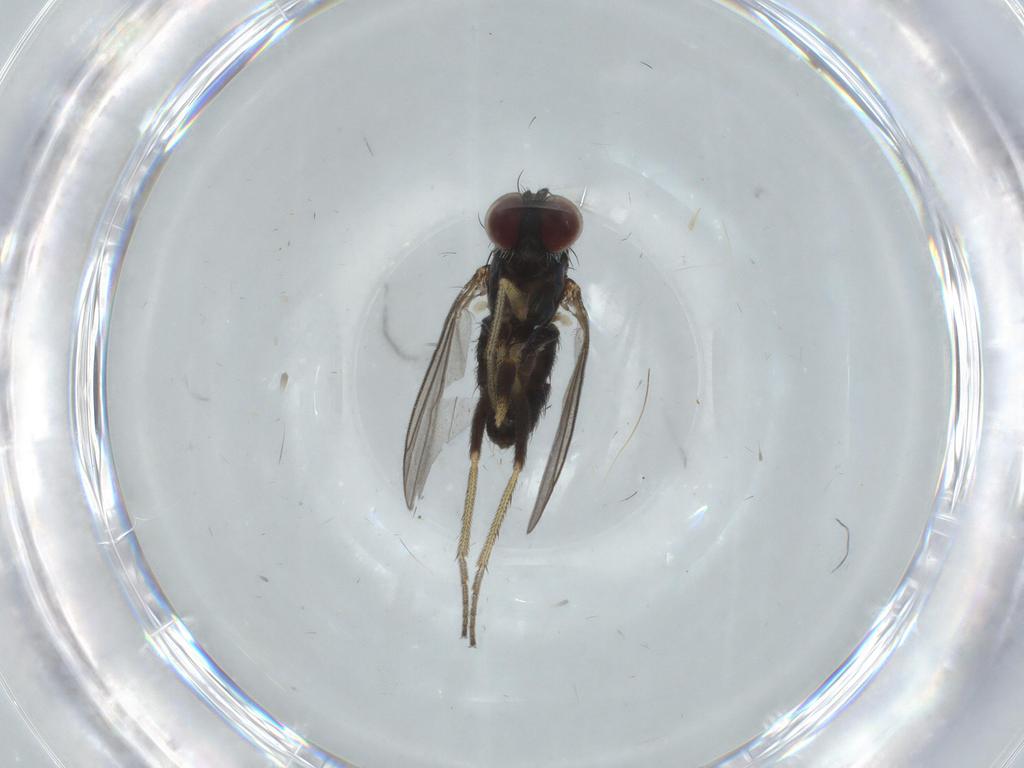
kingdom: Animalia
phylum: Arthropoda
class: Insecta
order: Diptera
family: Dolichopodidae
